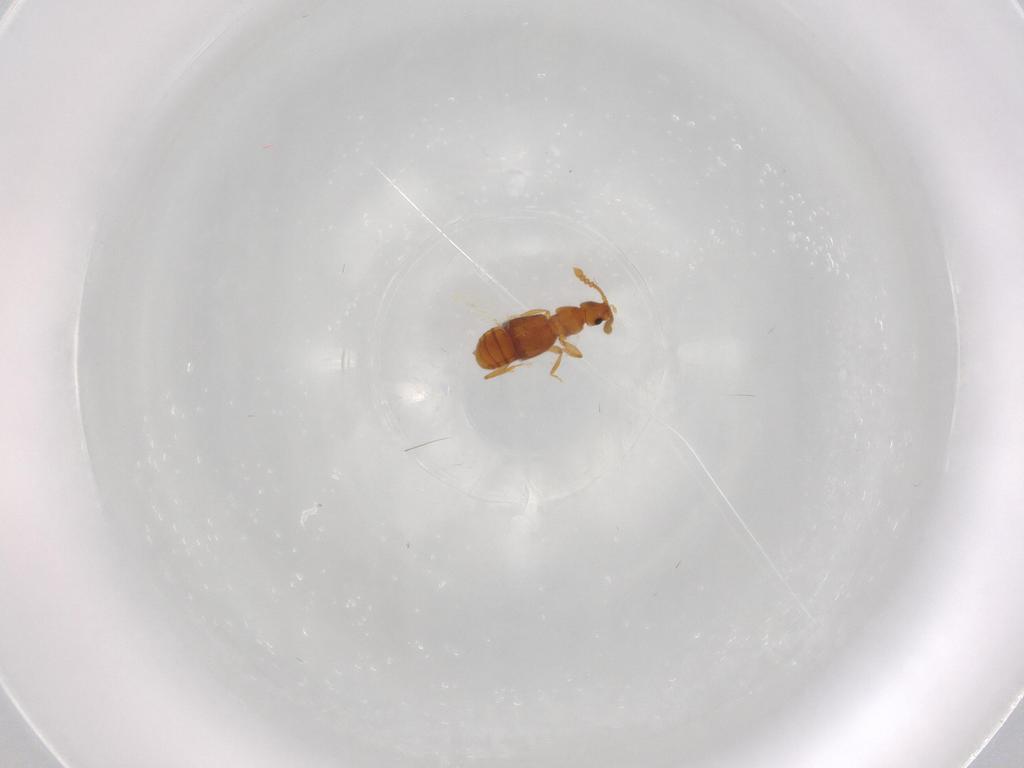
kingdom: Animalia
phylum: Arthropoda
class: Insecta
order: Coleoptera
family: Staphylinidae
